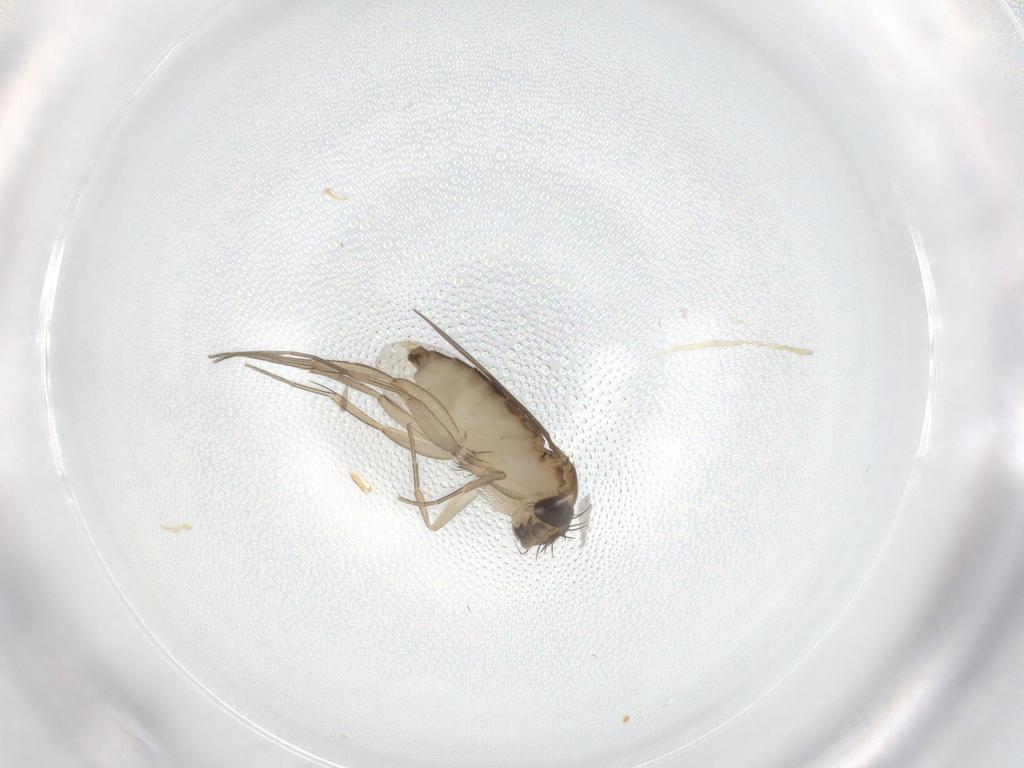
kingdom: Animalia
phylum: Arthropoda
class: Insecta
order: Diptera
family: Phoridae
